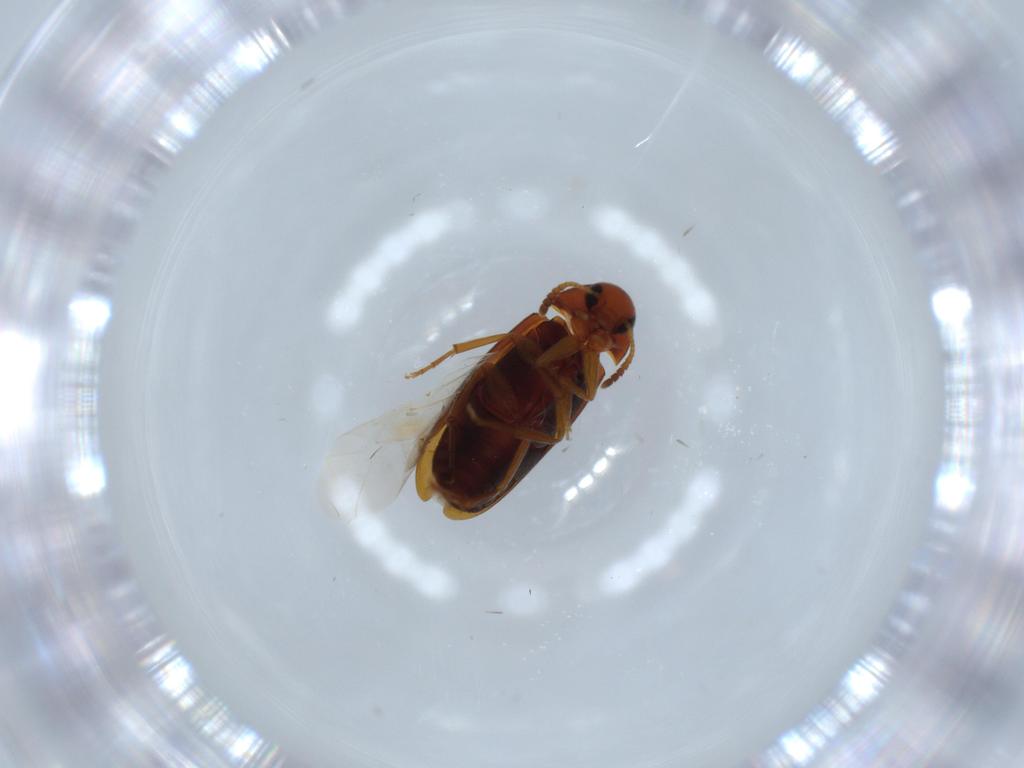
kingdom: Animalia
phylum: Arthropoda
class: Insecta
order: Coleoptera
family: Scraptiidae
